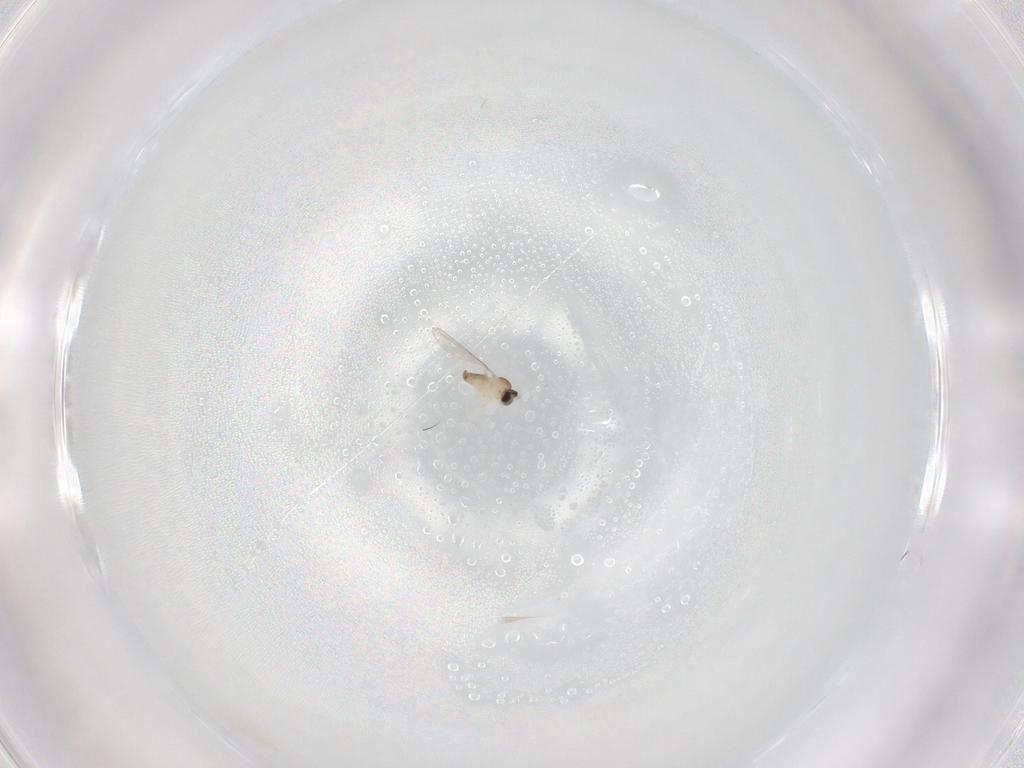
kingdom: Animalia
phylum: Arthropoda
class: Insecta
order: Diptera
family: Cecidomyiidae
